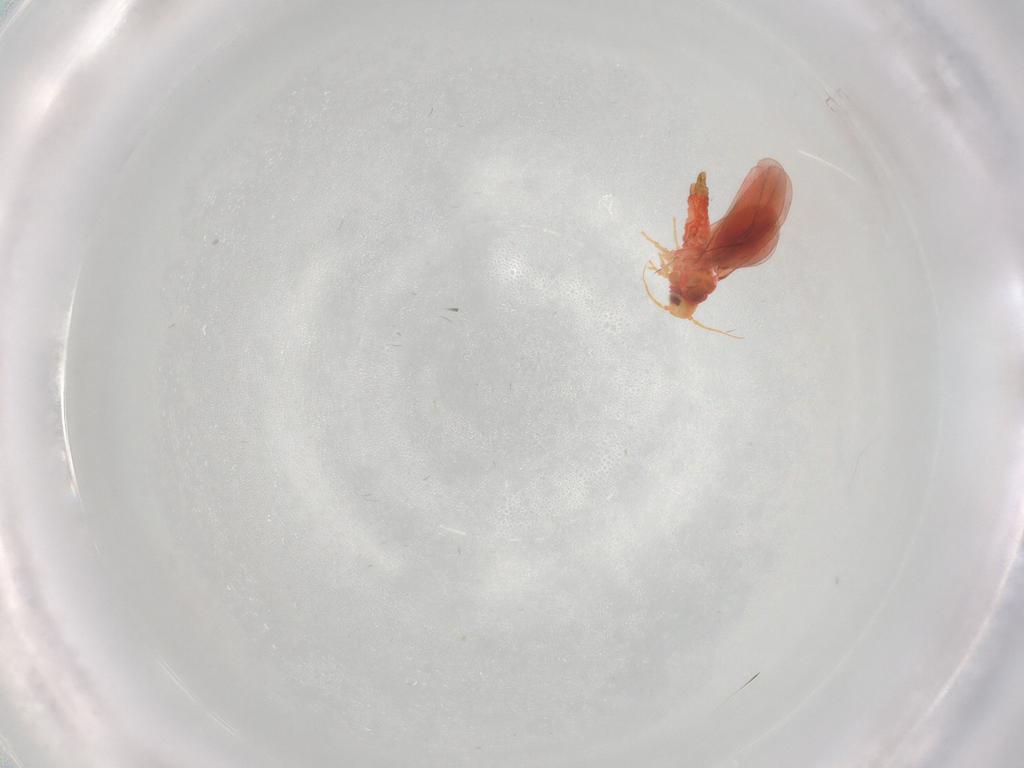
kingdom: Animalia
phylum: Arthropoda
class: Insecta
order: Hemiptera
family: Aleyrodidae
